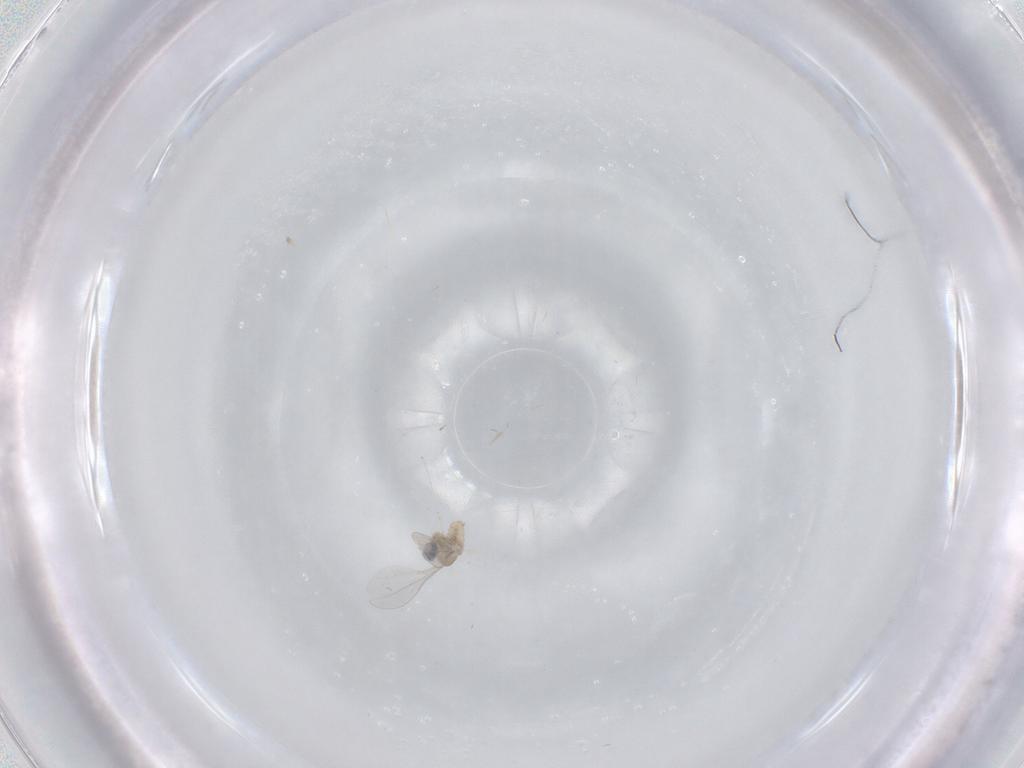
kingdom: Animalia
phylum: Arthropoda
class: Insecta
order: Diptera
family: Cecidomyiidae
